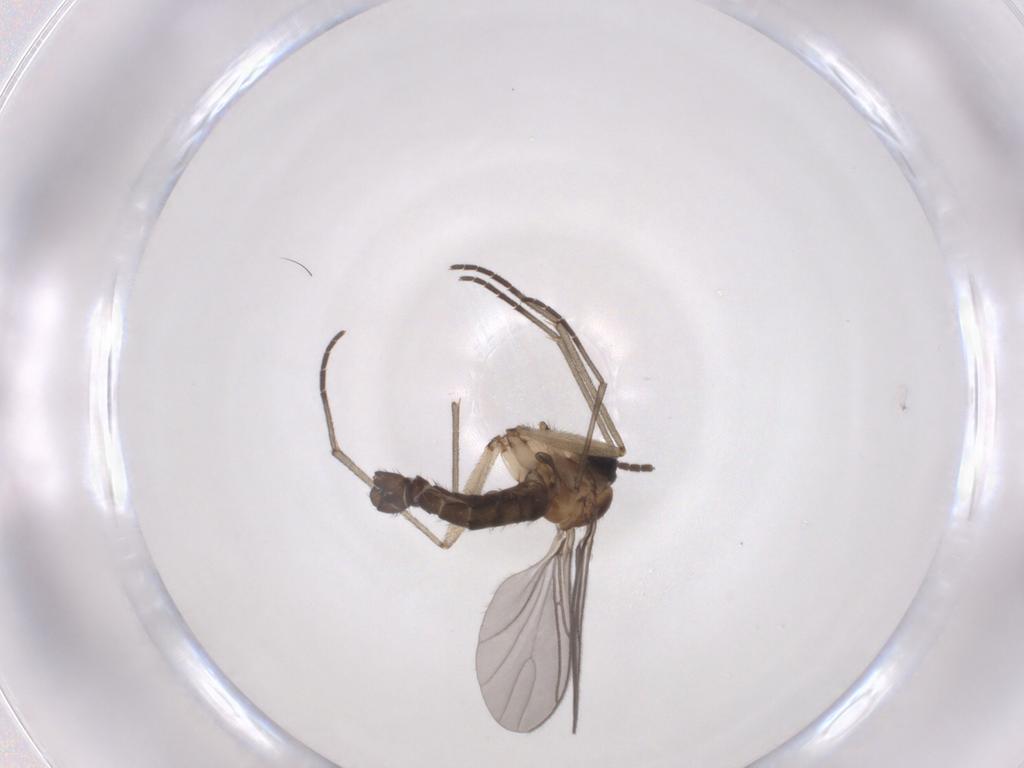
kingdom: Animalia
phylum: Arthropoda
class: Insecta
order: Diptera
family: Sciaridae
